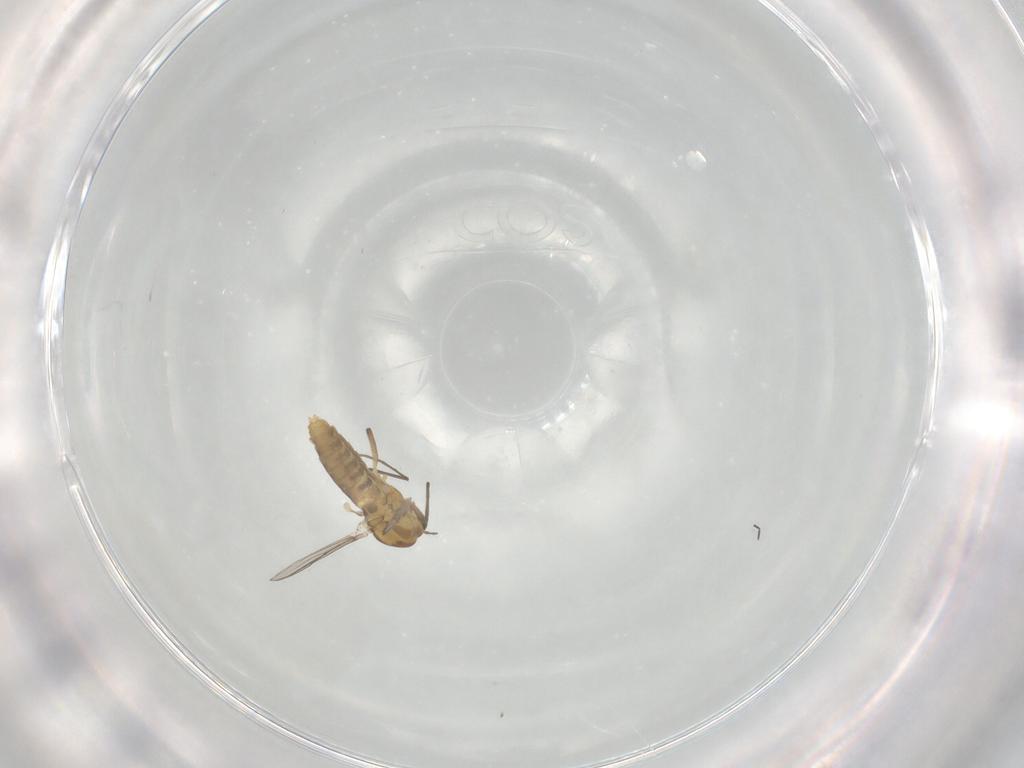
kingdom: Animalia
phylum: Arthropoda
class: Insecta
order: Diptera
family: Chironomidae
